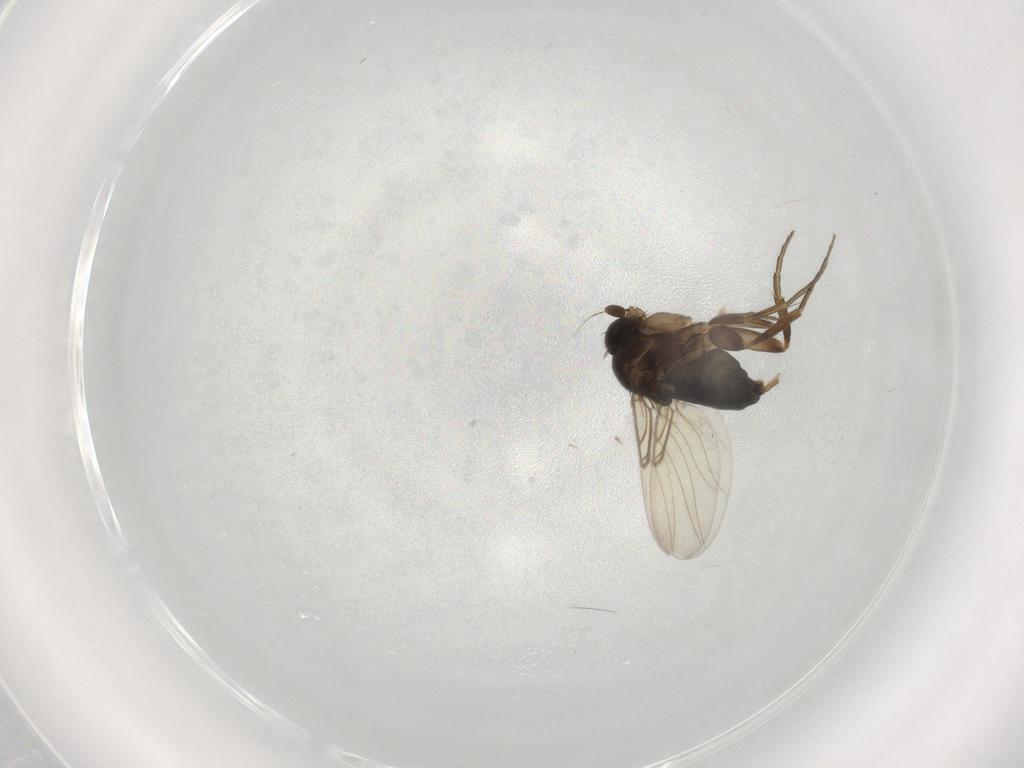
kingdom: Animalia
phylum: Arthropoda
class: Insecta
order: Diptera
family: Chironomidae
